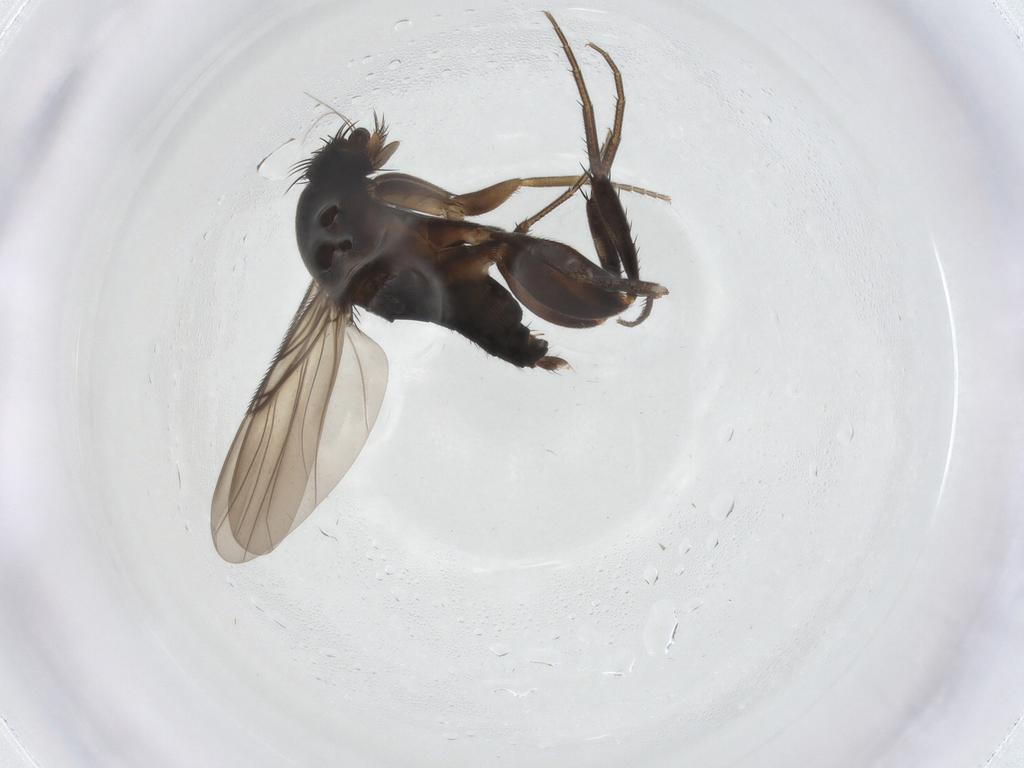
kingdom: Animalia
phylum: Arthropoda
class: Insecta
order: Diptera
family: Phoridae
